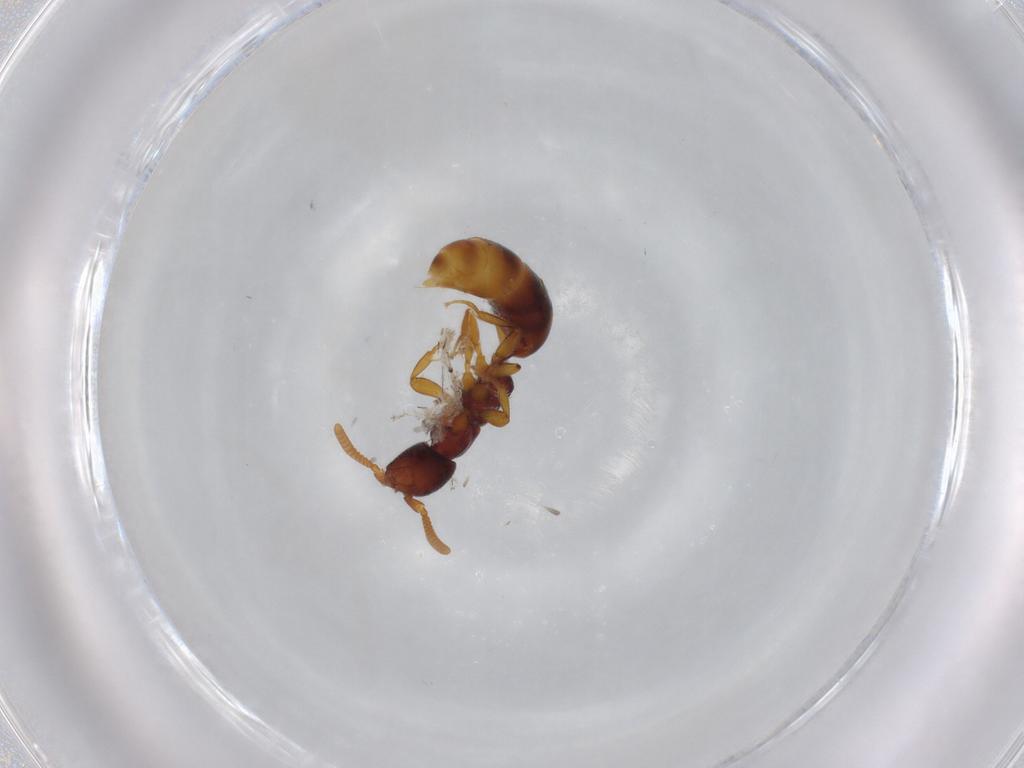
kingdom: Animalia
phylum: Arthropoda
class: Insecta
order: Hymenoptera
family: Bethylidae
